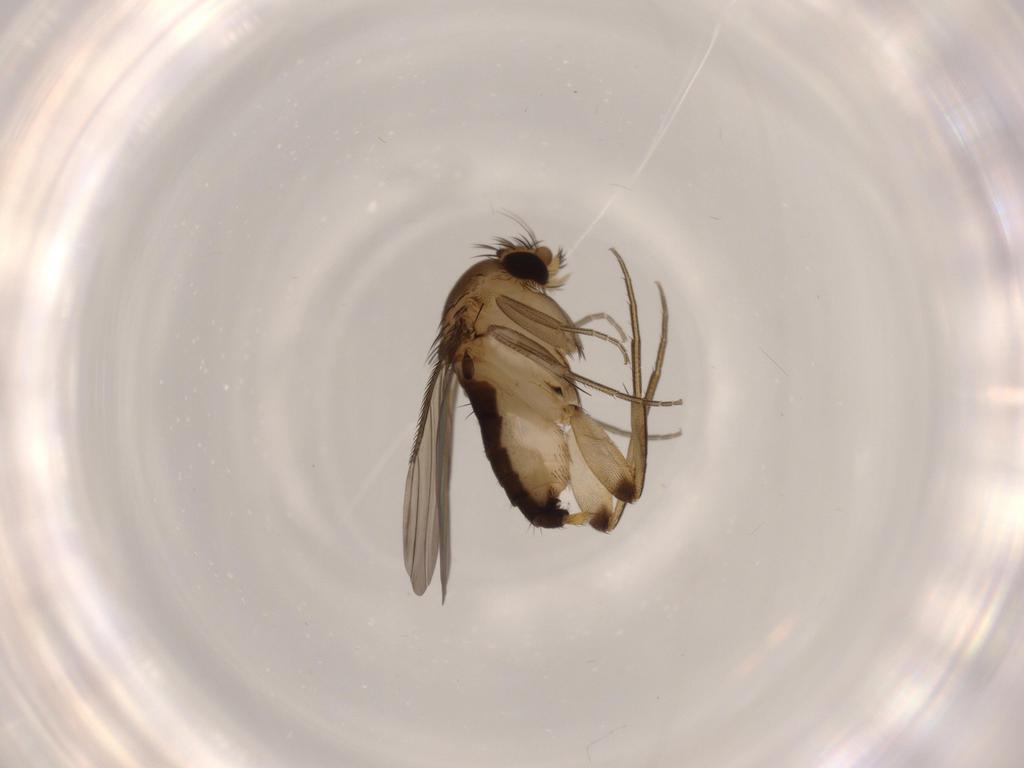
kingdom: Animalia
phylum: Arthropoda
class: Insecta
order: Diptera
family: Phoridae
